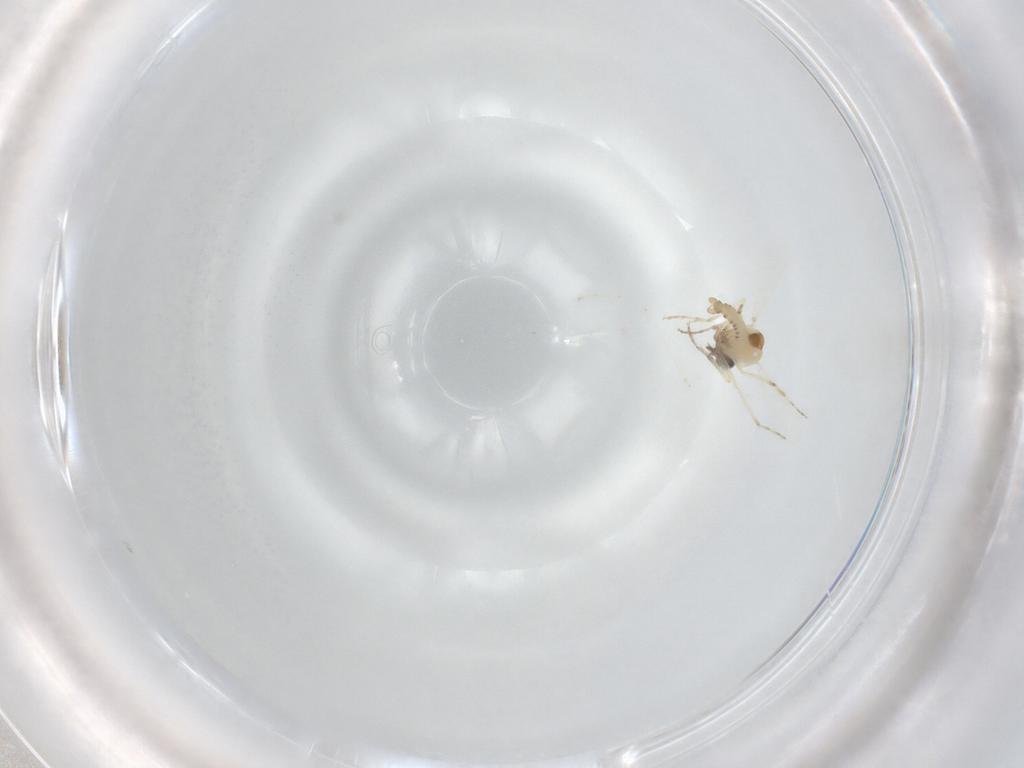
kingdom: Animalia
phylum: Arthropoda
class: Insecta
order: Diptera
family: Ceratopogonidae
